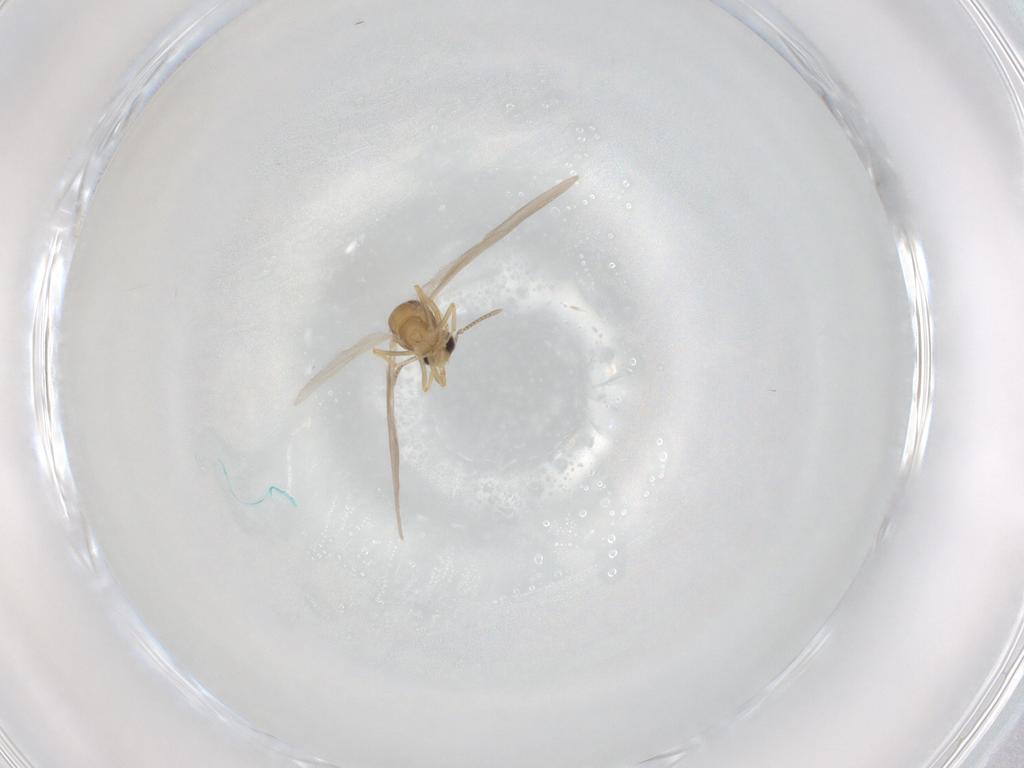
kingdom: Animalia
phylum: Arthropoda
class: Insecta
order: Hymenoptera
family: Formicidae
